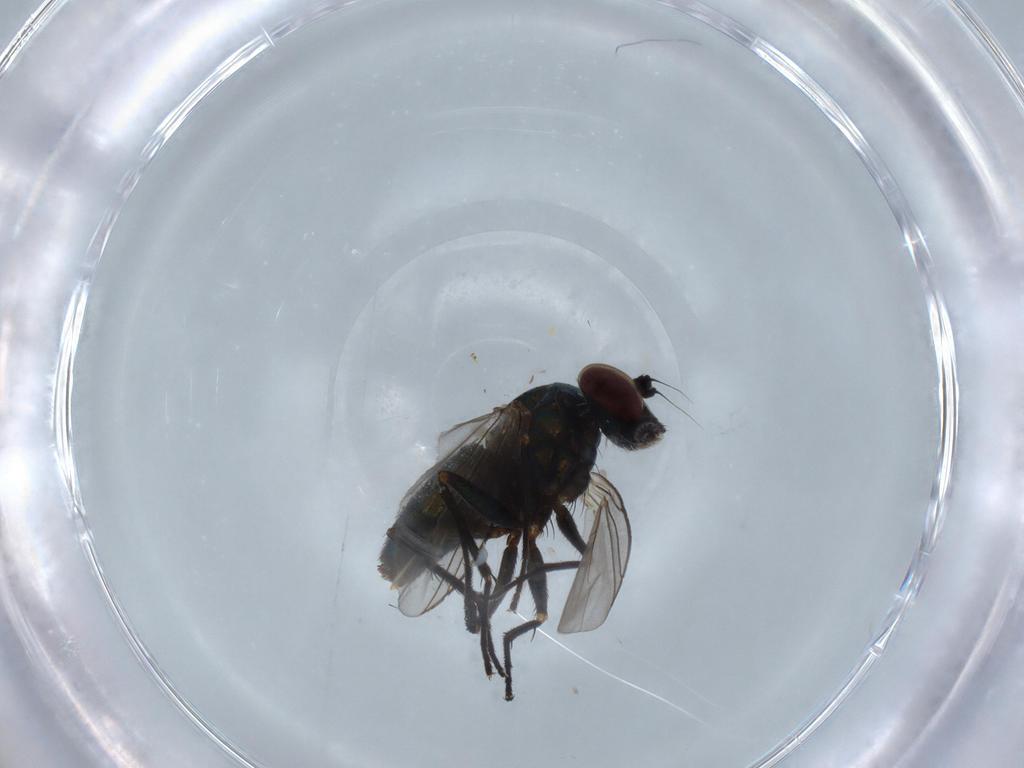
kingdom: Animalia
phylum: Arthropoda
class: Insecta
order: Diptera
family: Dolichopodidae
